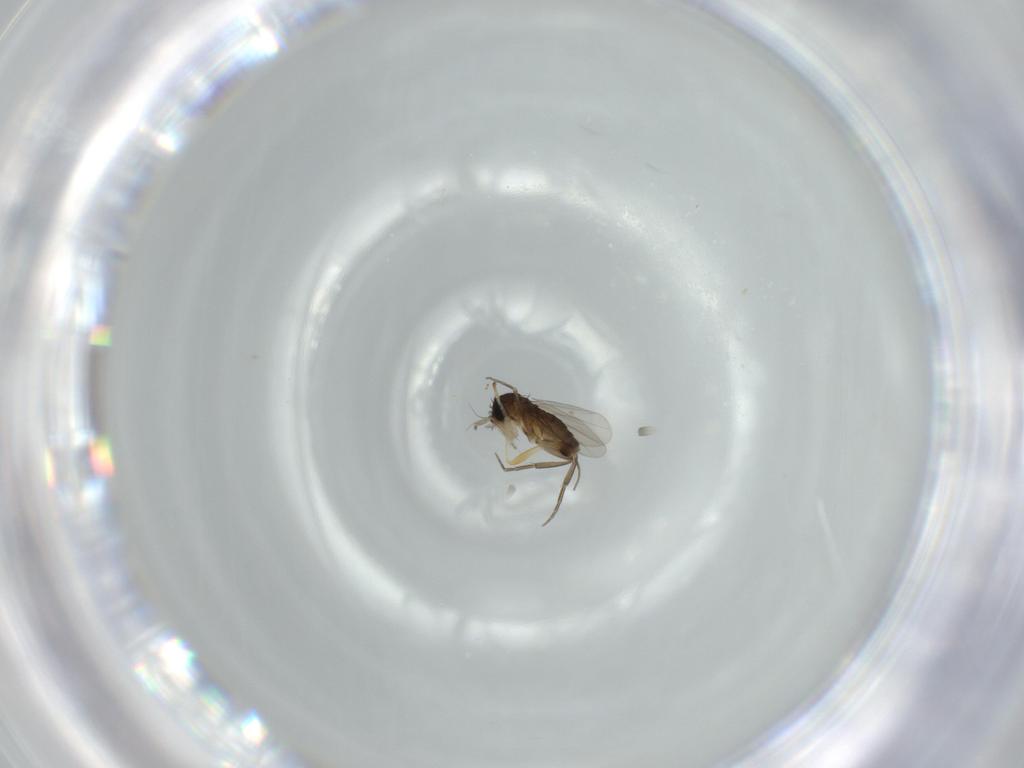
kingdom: Animalia
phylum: Arthropoda
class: Insecta
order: Diptera
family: Phoridae
